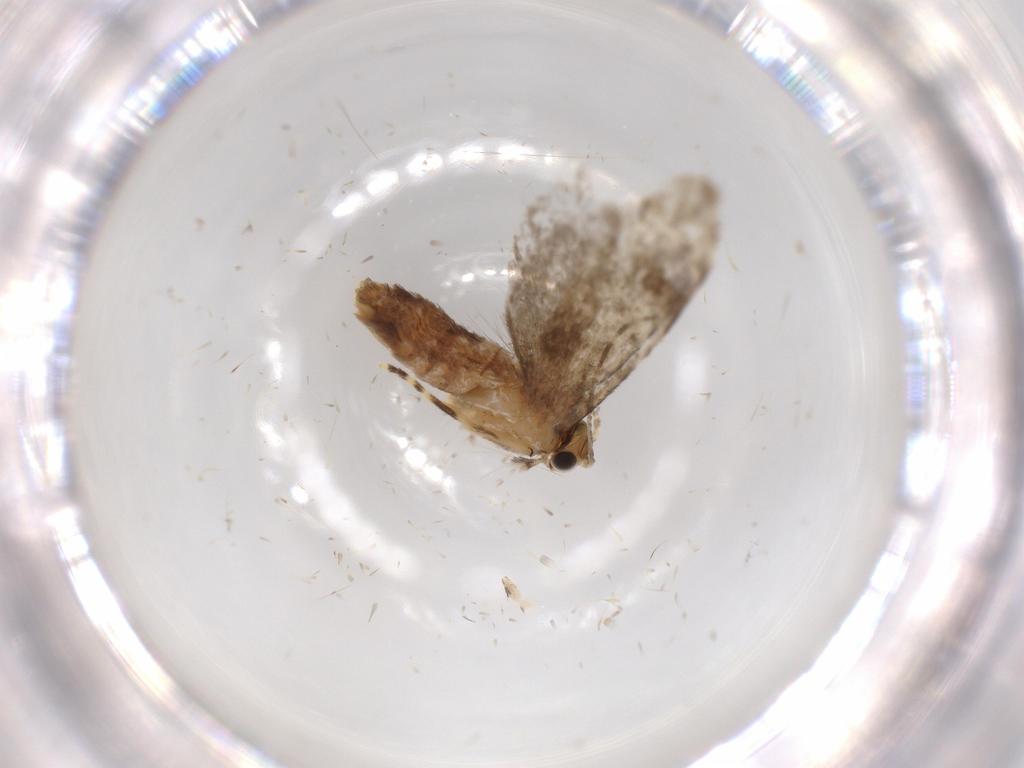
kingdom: Animalia
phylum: Arthropoda
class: Insecta
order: Lepidoptera
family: Tineidae
